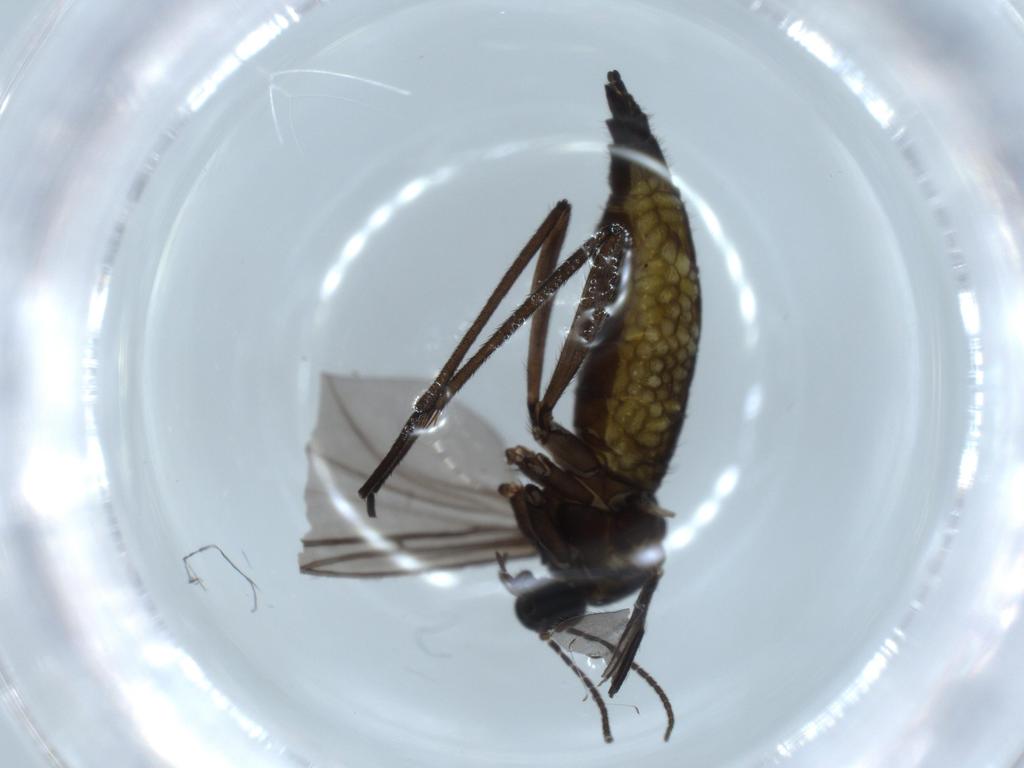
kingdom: Animalia
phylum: Arthropoda
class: Insecta
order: Diptera
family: Sciaridae
